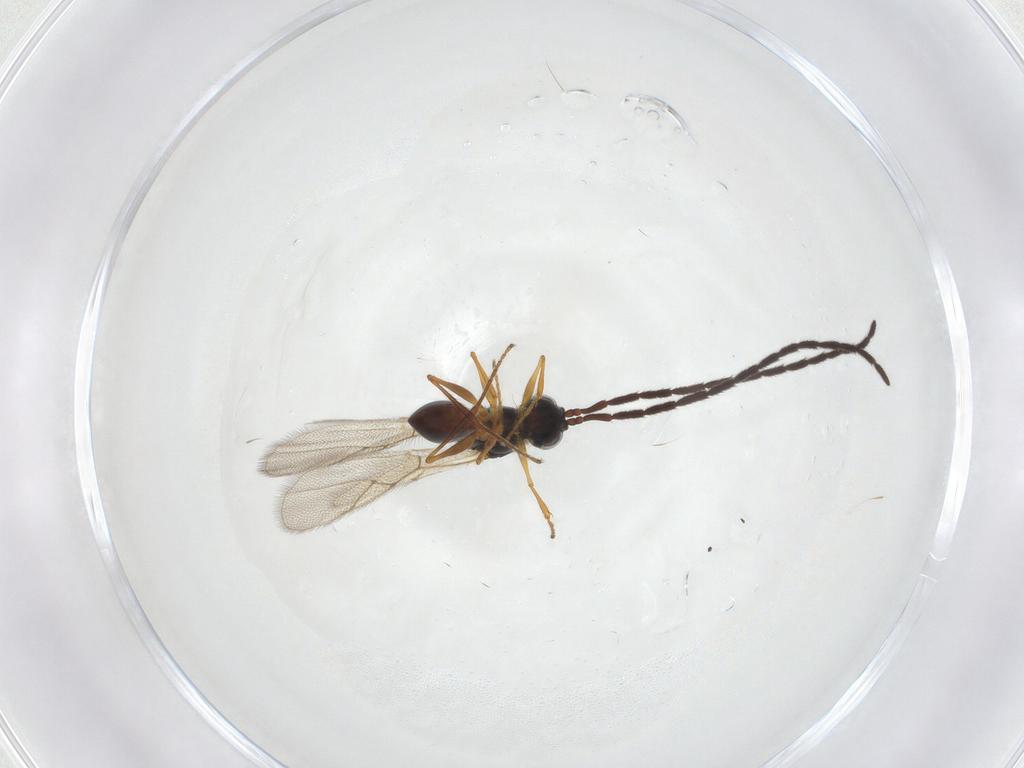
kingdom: Animalia
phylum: Arthropoda
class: Insecta
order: Hymenoptera
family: Figitidae
